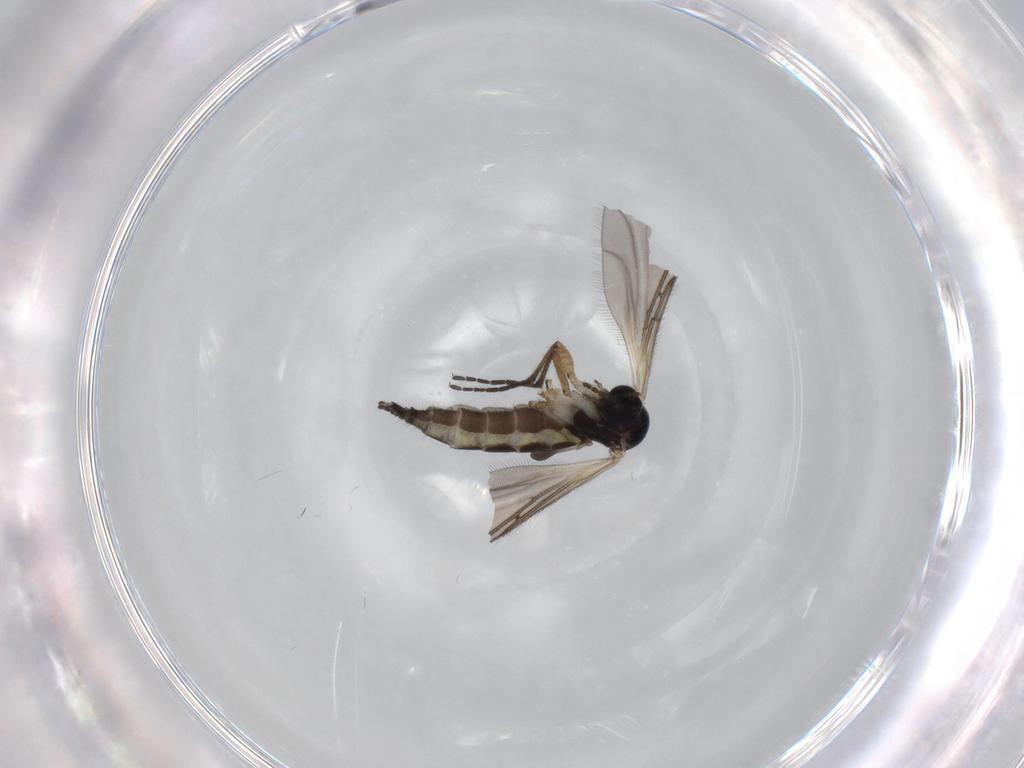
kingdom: Animalia
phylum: Arthropoda
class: Insecta
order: Diptera
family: Sciaridae
